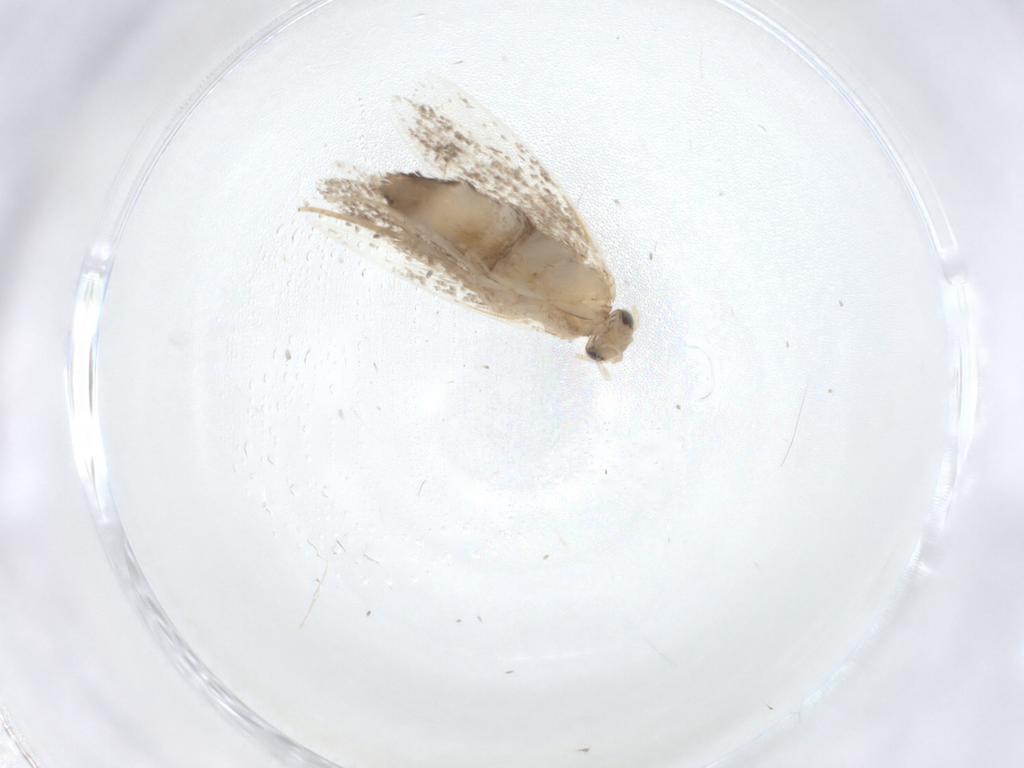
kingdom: Animalia
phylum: Arthropoda
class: Insecta
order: Lepidoptera
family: Dryadaulidae
